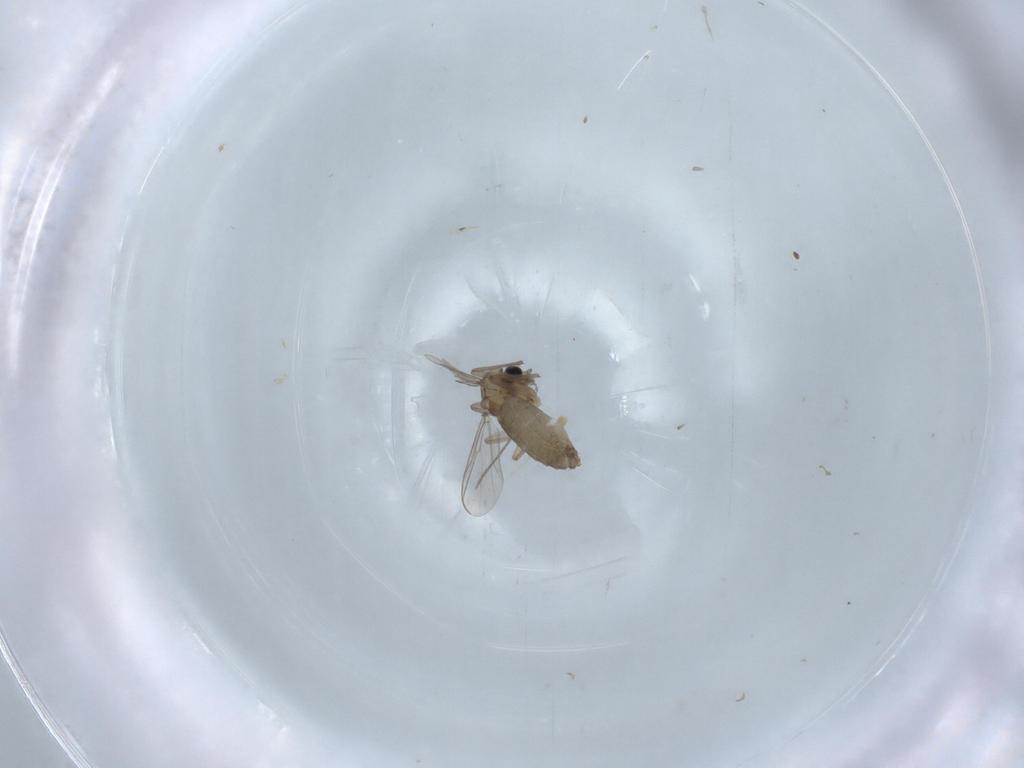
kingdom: Animalia
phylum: Arthropoda
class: Insecta
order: Diptera
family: Chironomidae
